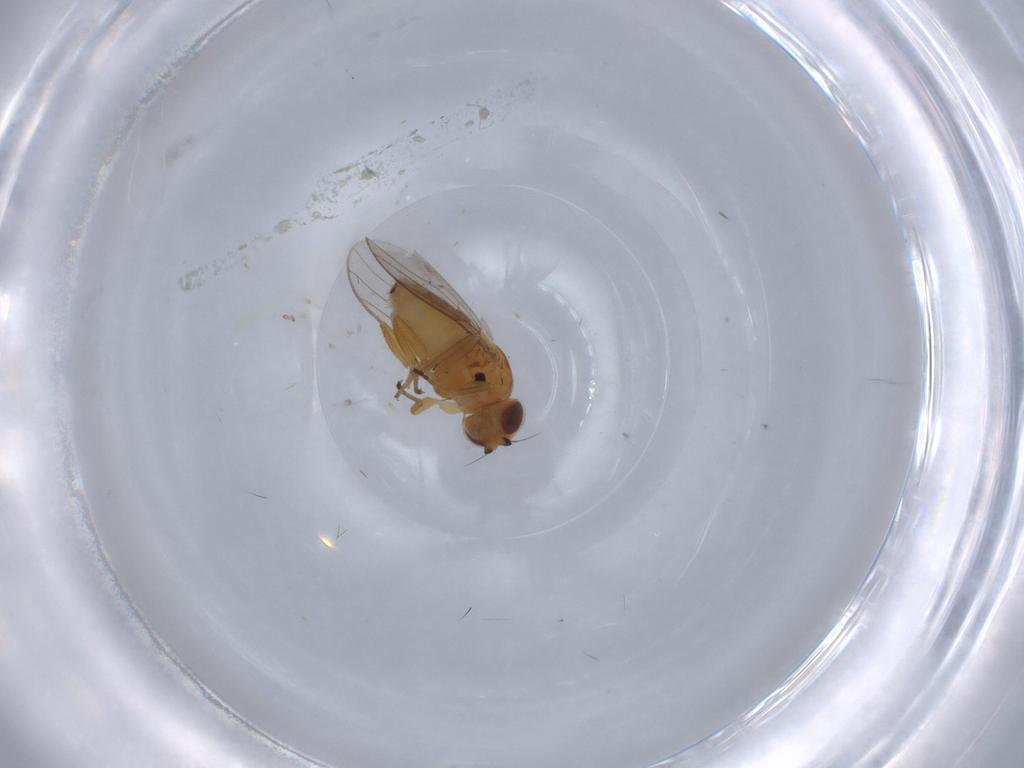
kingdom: Animalia
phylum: Arthropoda
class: Insecta
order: Diptera
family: Chloropidae
